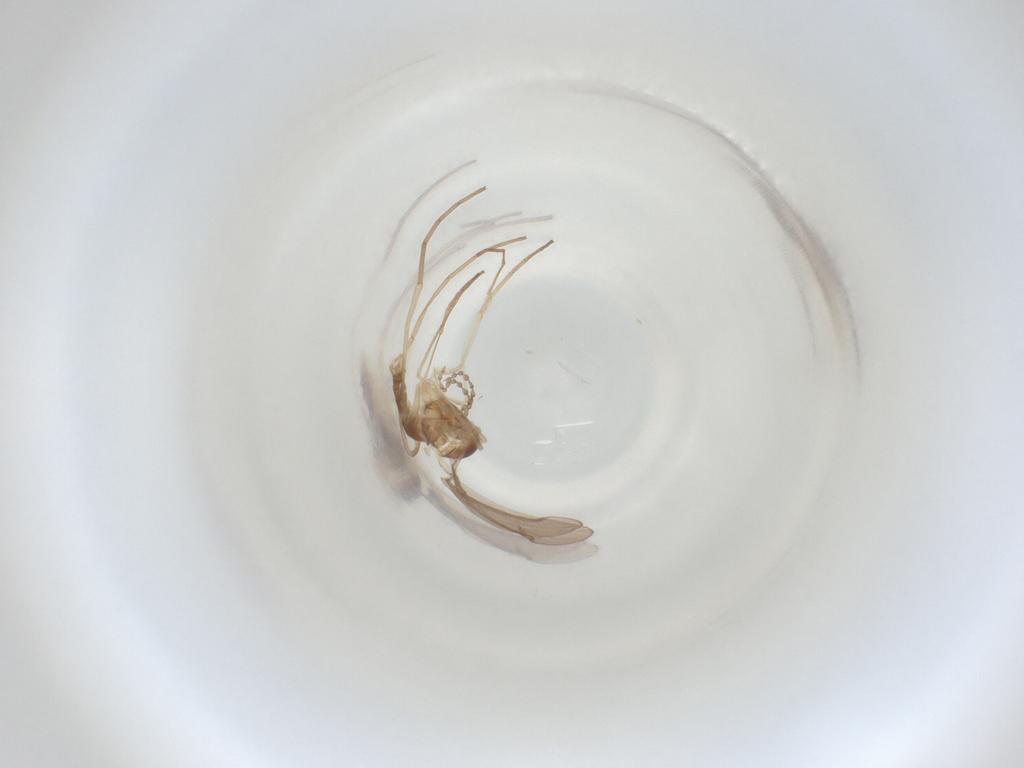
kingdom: Animalia
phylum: Arthropoda
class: Insecta
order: Diptera
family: Cecidomyiidae
